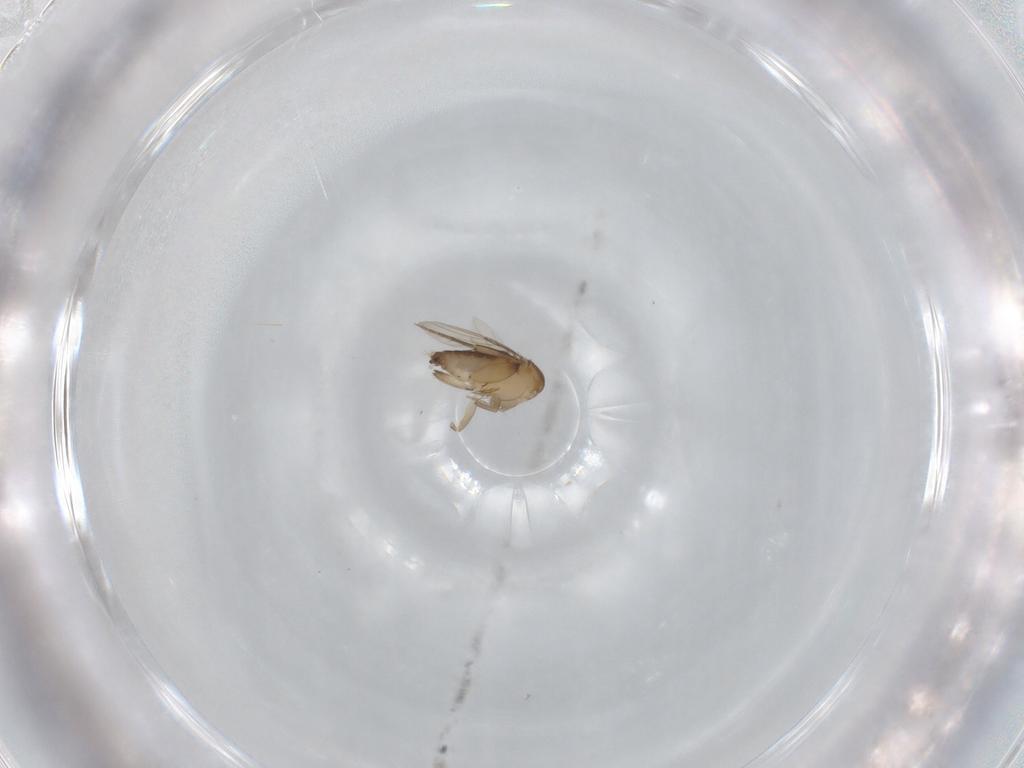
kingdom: Animalia
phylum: Arthropoda
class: Insecta
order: Diptera
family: Phoridae
